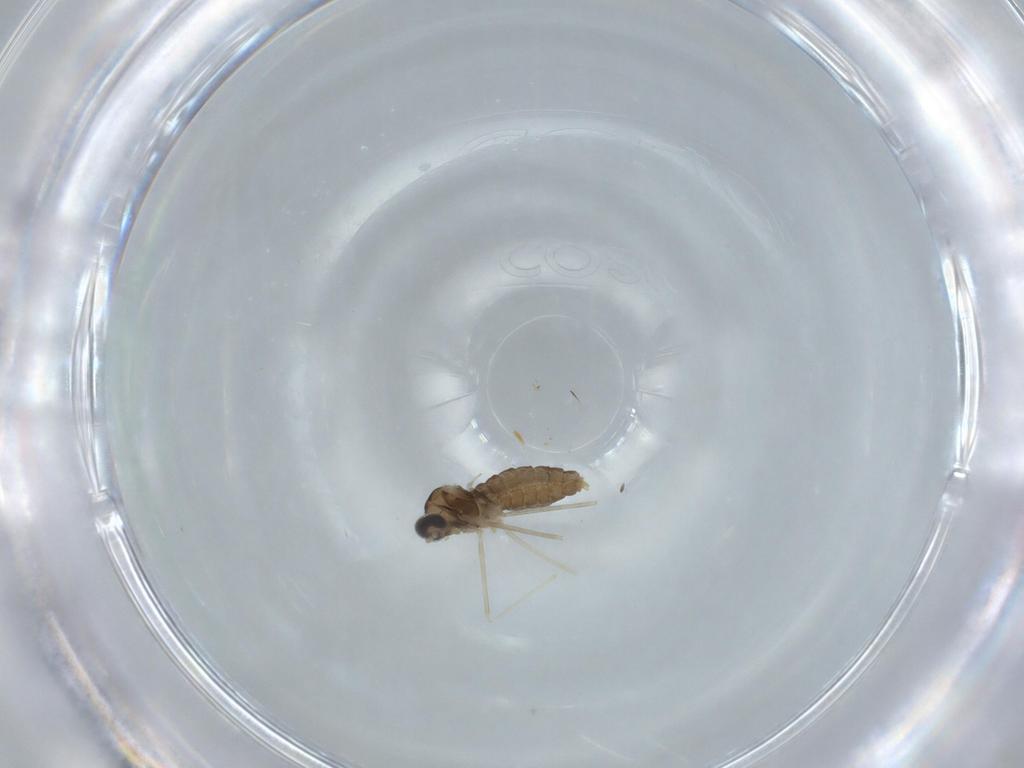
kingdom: Animalia
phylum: Arthropoda
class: Insecta
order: Diptera
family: Cecidomyiidae
